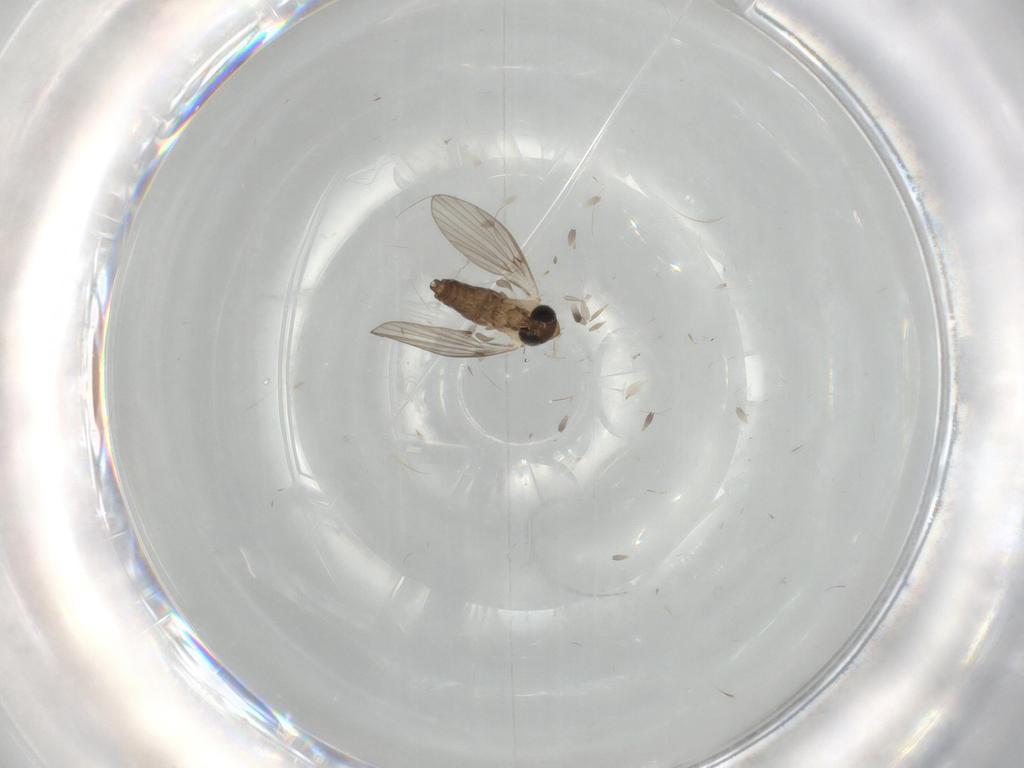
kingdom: Animalia
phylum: Arthropoda
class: Insecta
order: Diptera
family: Psychodidae
